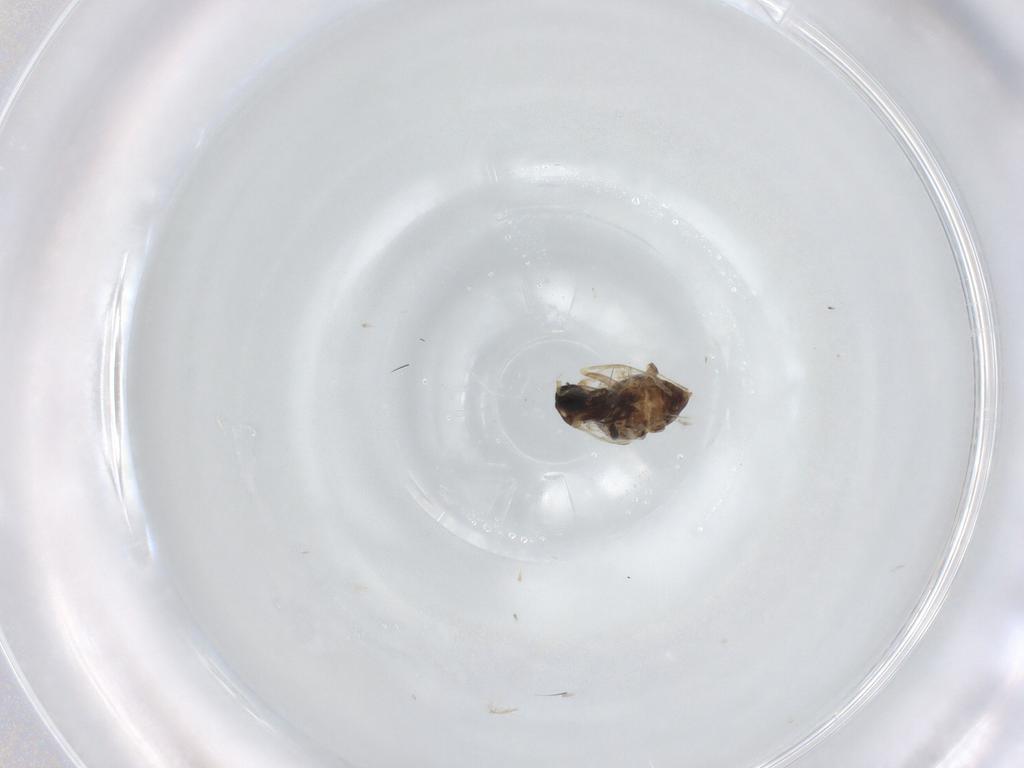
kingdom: Animalia
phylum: Arthropoda
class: Insecta
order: Diptera
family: Cecidomyiidae
